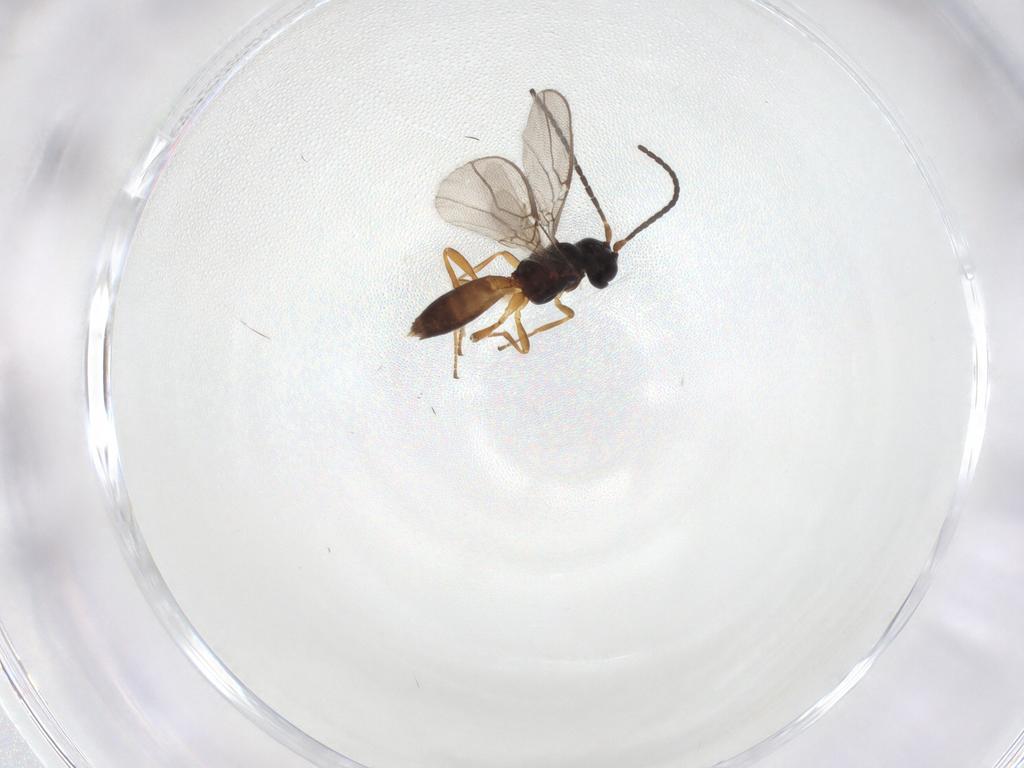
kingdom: Animalia
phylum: Arthropoda
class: Insecta
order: Hymenoptera
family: Braconidae
